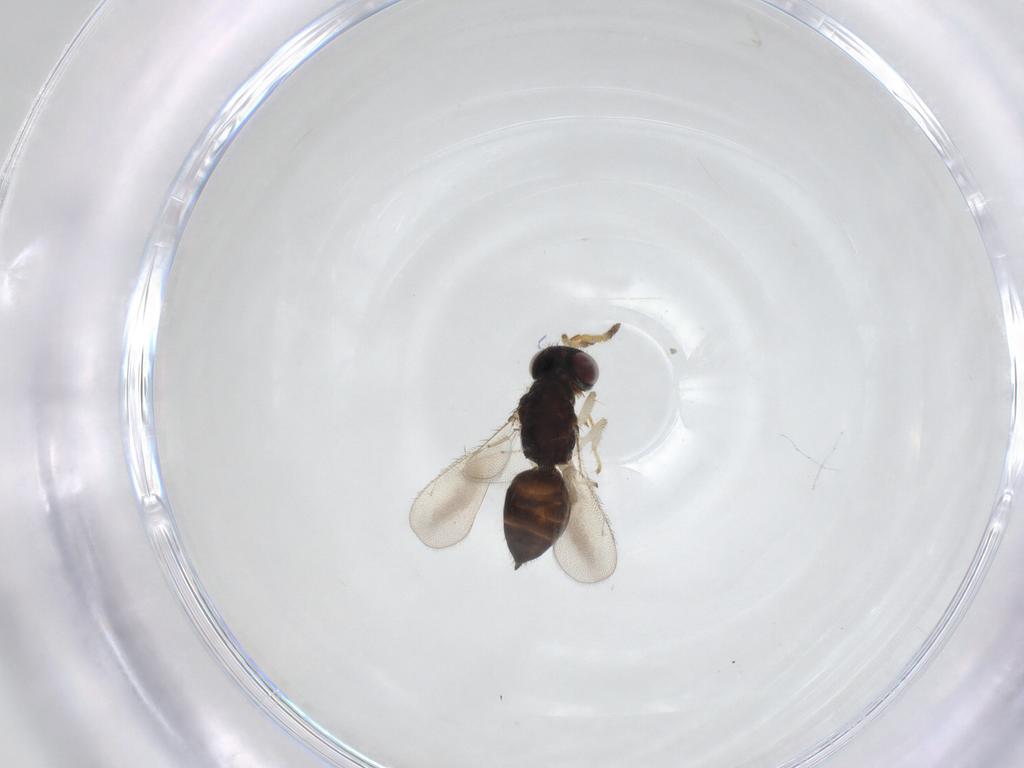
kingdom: Animalia
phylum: Arthropoda
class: Insecta
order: Hymenoptera
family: Eulophidae
